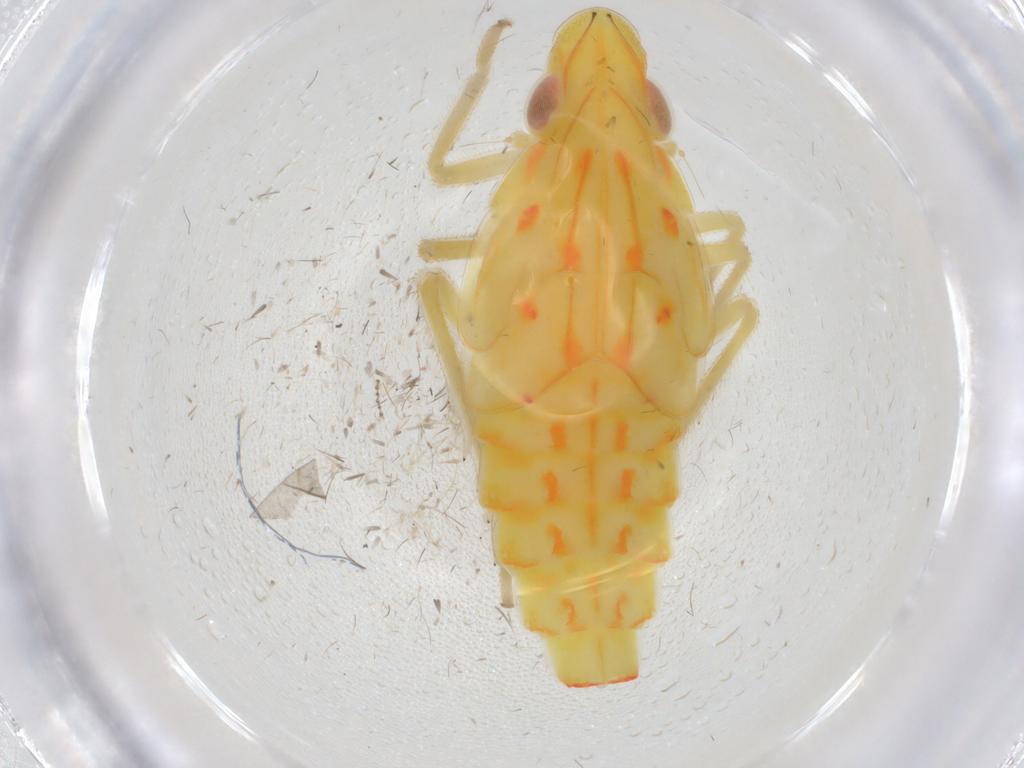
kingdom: Animalia
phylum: Arthropoda
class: Insecta
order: Hemiptera
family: Tropiduchidae
